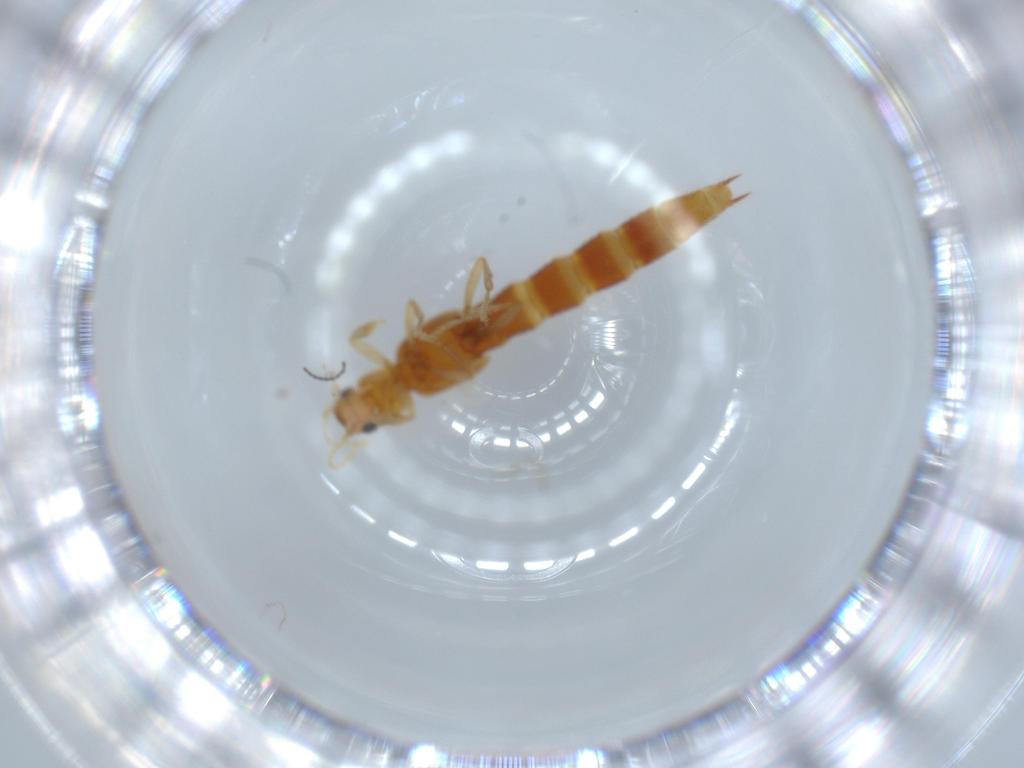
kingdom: Animalia
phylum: Arthropoda
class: Insecta
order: Coleoptera
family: Staphylinidae
